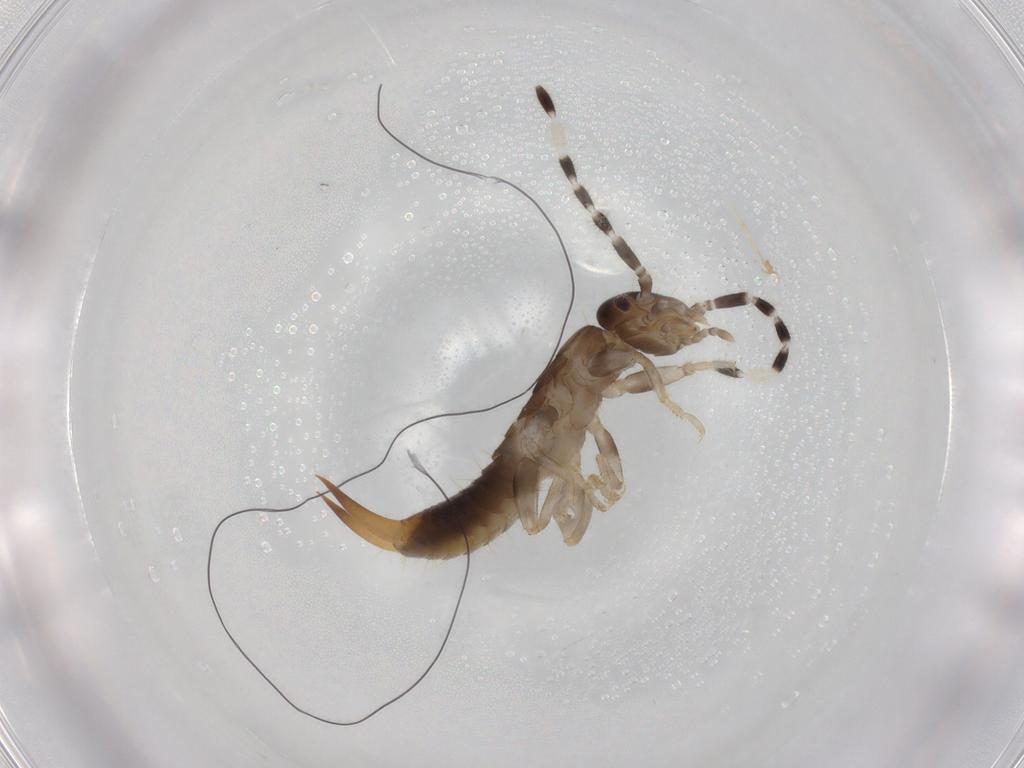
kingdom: Animalia
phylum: Arthropoda
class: Insecta
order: Dermaptera
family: Anisolabididae
